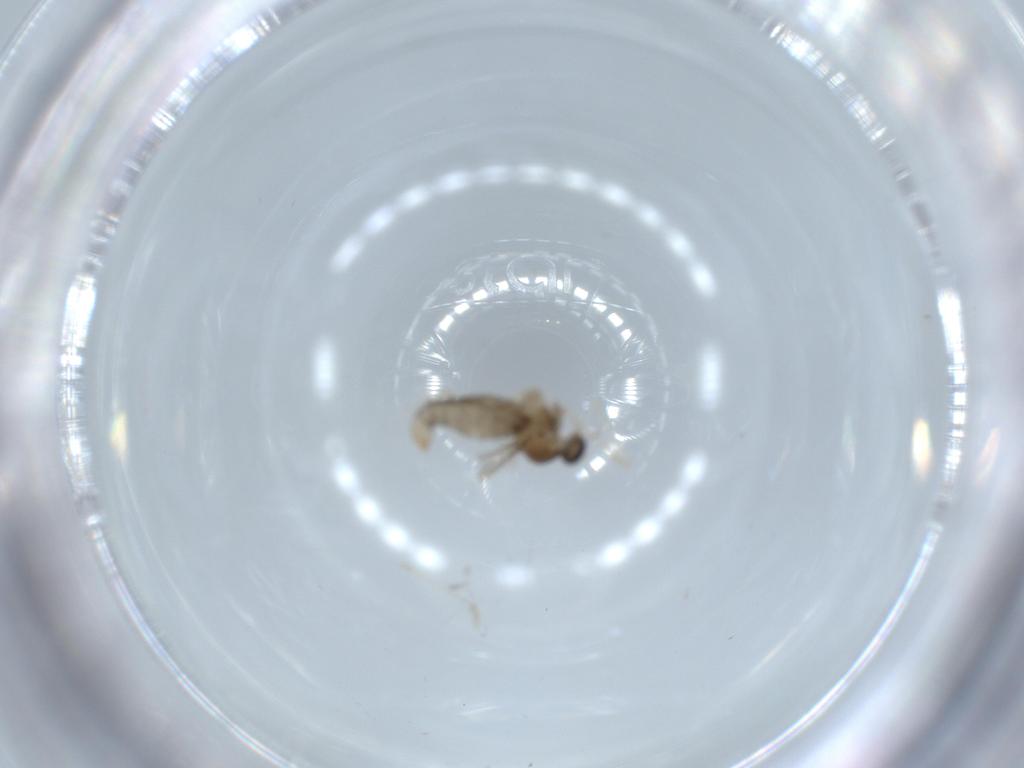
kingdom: Animalia
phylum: Arthropoda
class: Insecta
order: Diptera
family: Cecidomyiidae
